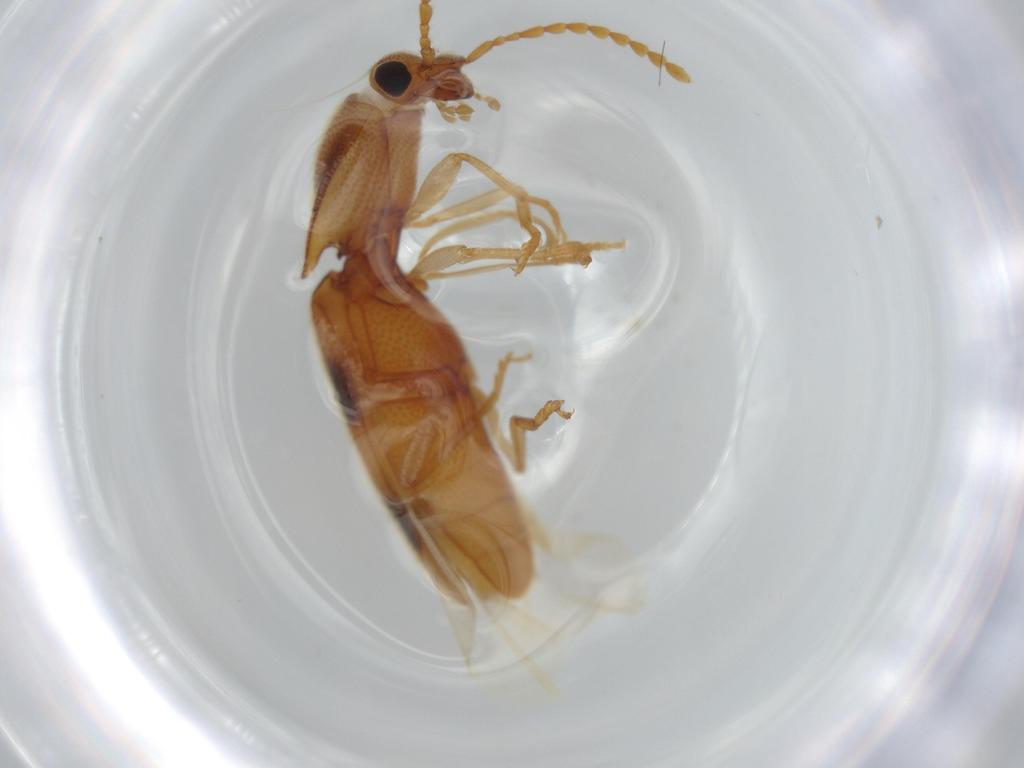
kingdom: Animalia
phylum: Arthropoda
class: Insecta
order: Coleoptera
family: Elateridae
